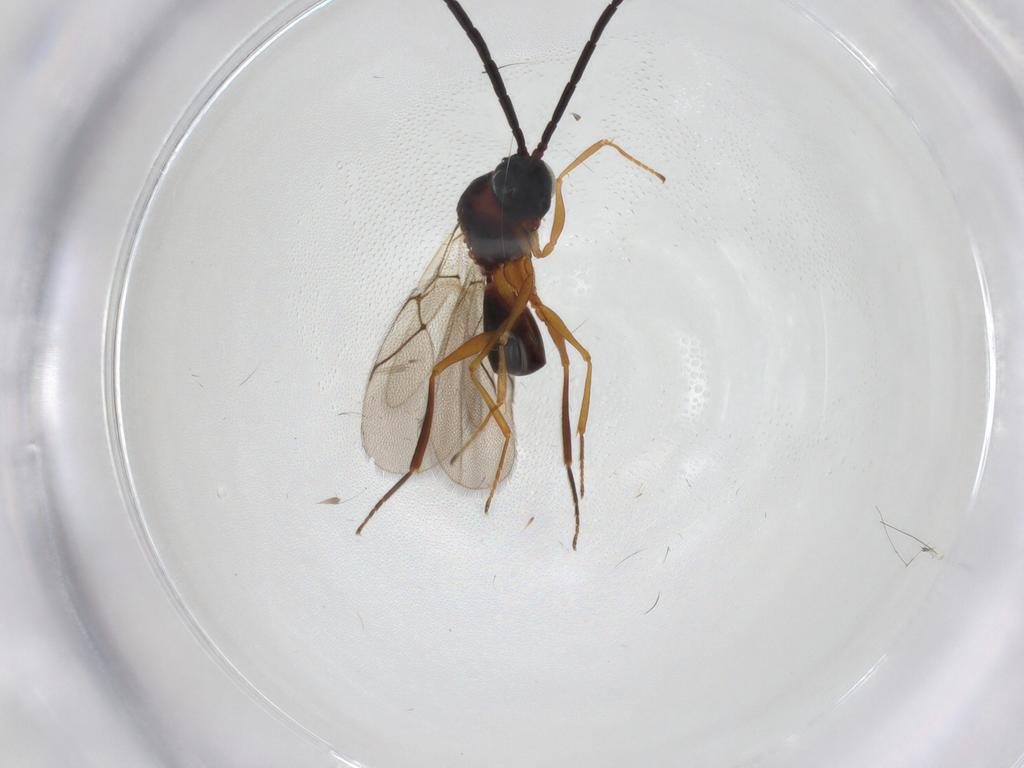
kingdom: Animalia
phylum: Arthropoda
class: Insecta
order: Hymenoptera
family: Figitidae
